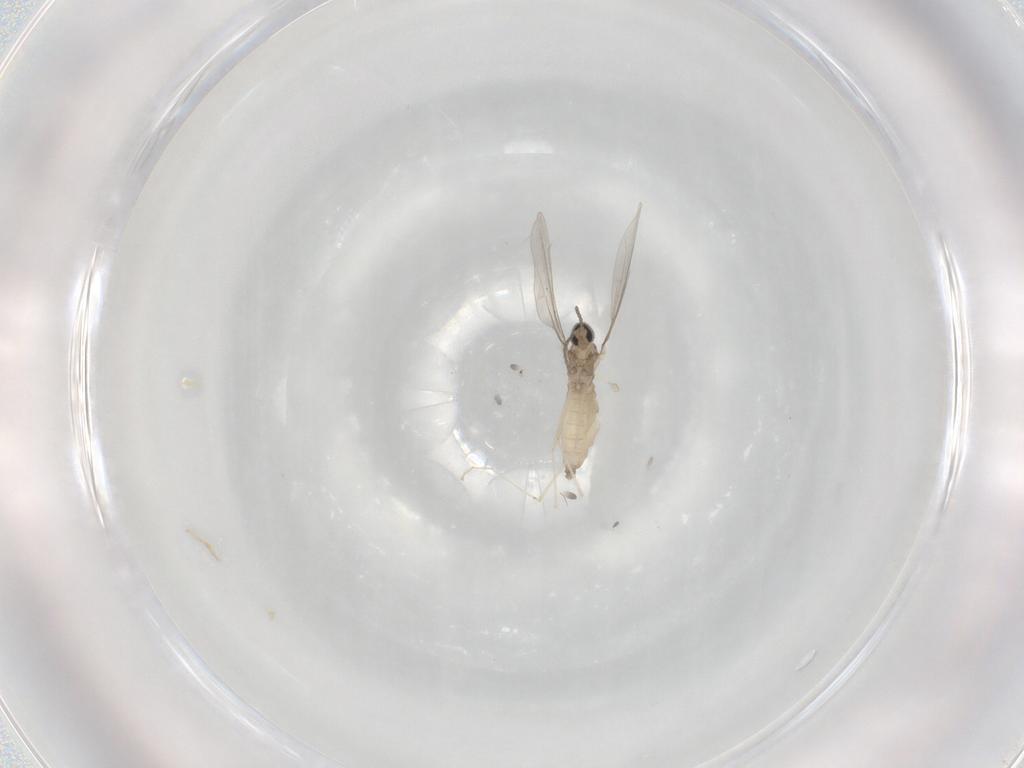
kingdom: Animalia
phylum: Arthropoda
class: Insecta
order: Diptera
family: Cecidomyiidae
